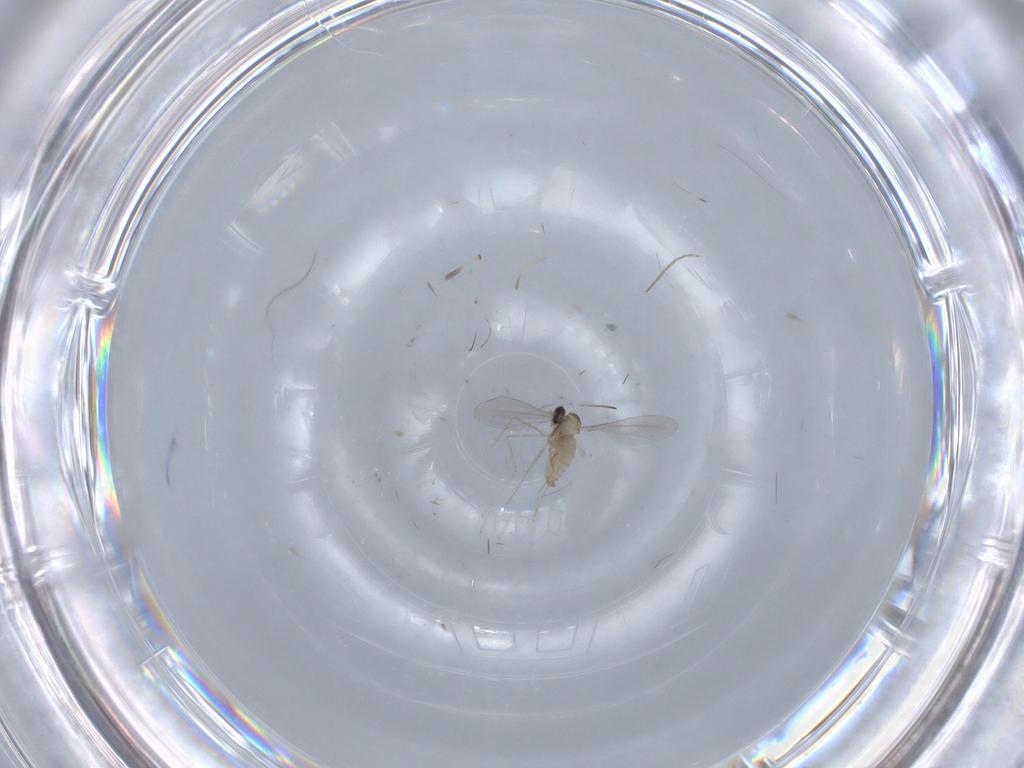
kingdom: Animalia
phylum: Arthropoda
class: Insecta
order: Diptera
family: Chironomidae
